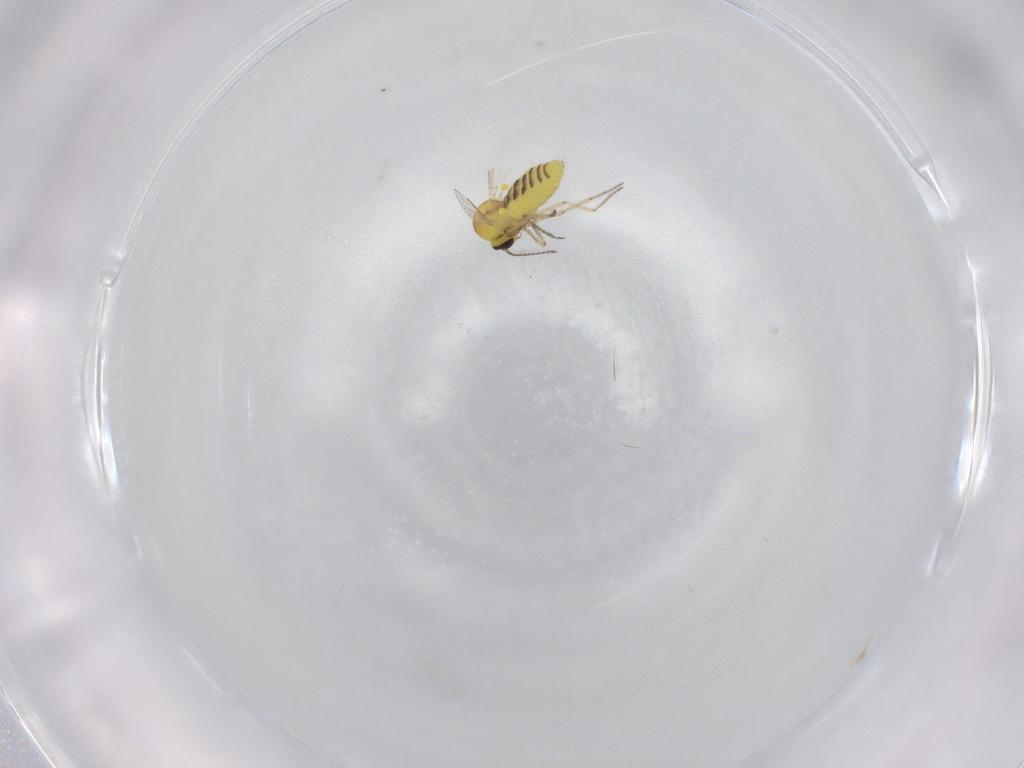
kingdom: Animalia
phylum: Arthropoda
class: Insecta
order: Diptera
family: Ceratopogonidae
